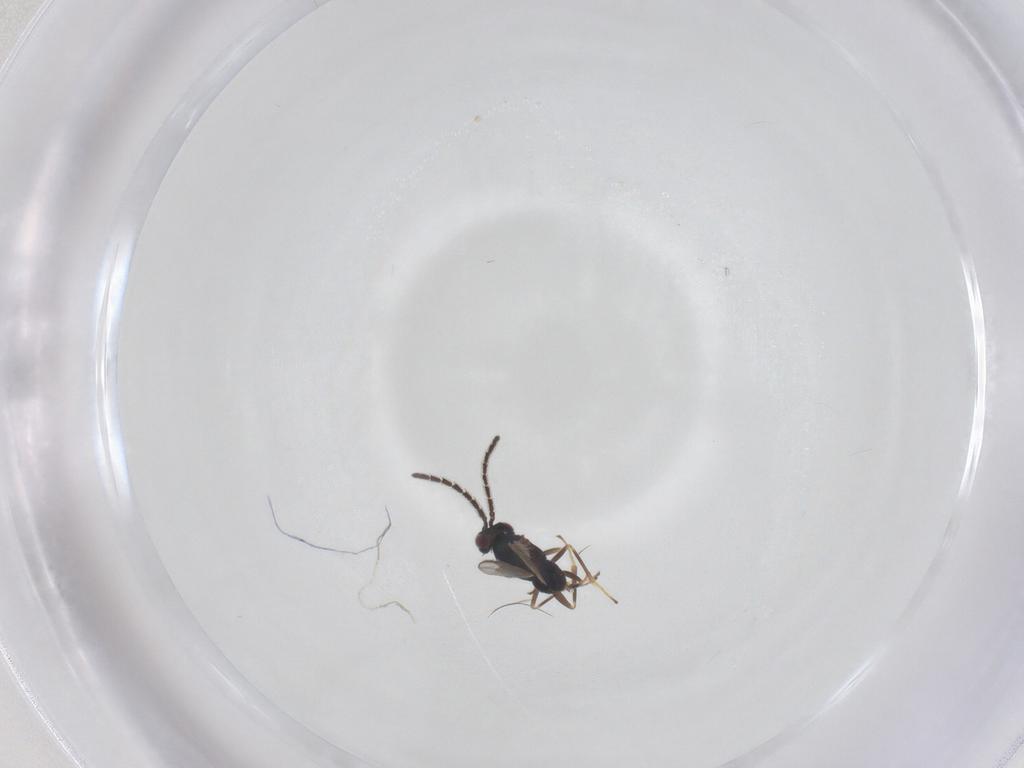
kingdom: Animalia
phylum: Arthropoda
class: Insecta
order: Hymenoptera
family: Encyrtidae
